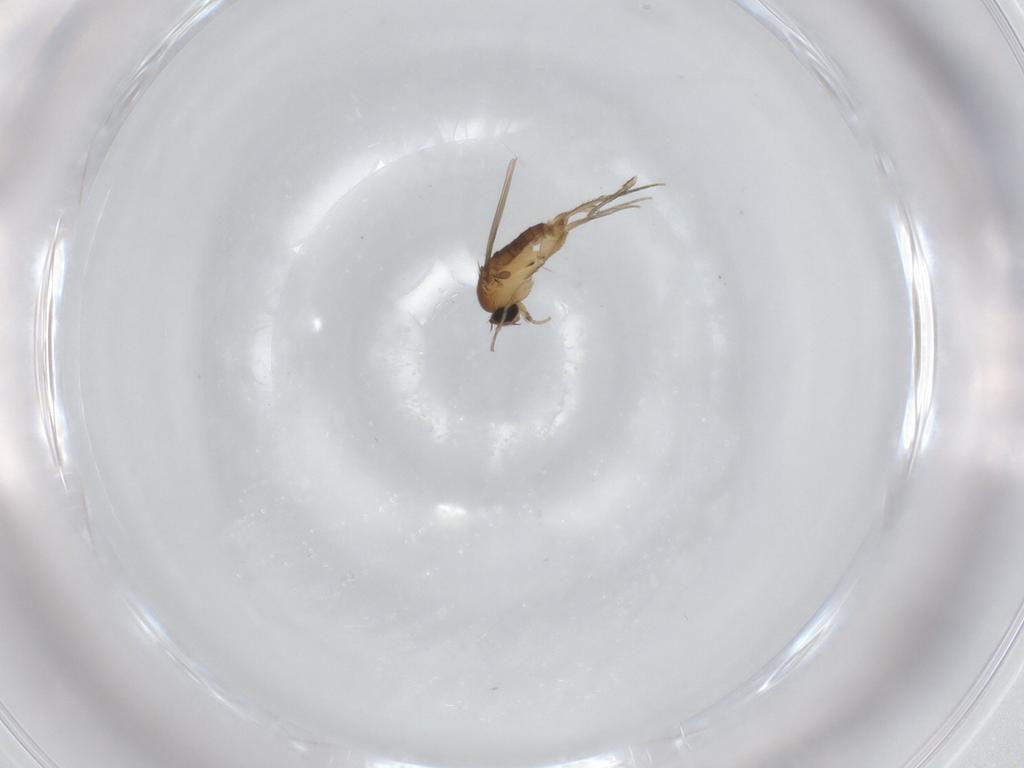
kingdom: Animalia
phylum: Arthropoda
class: Insecta
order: Diptera
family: Phoridae
